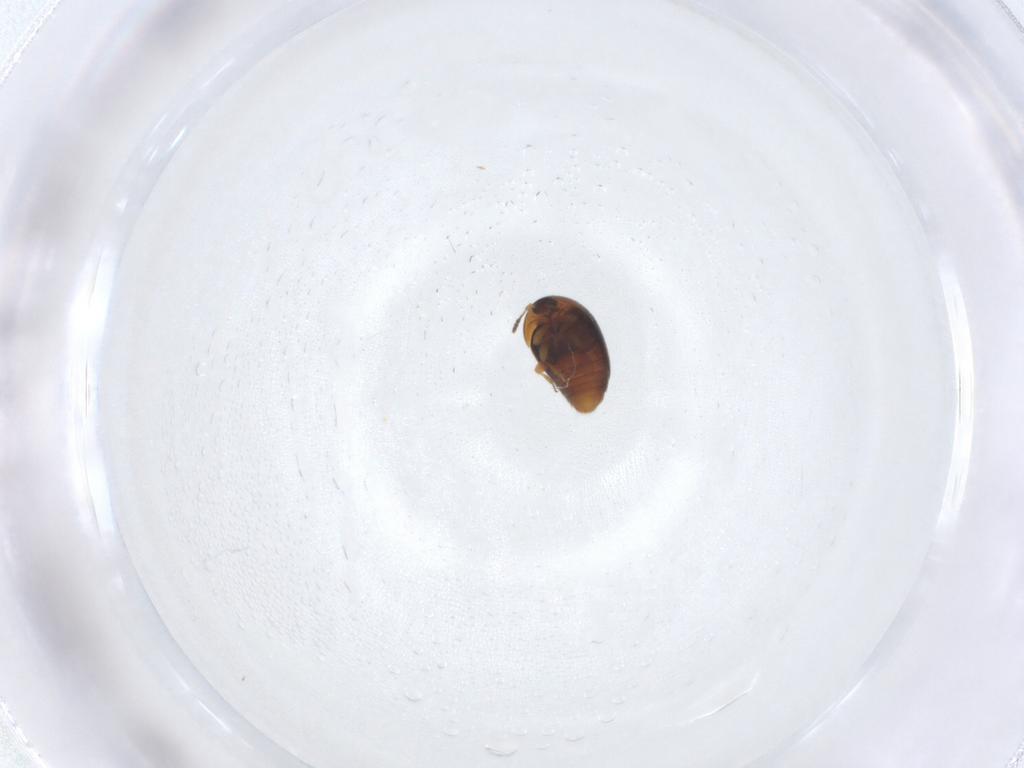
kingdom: Animalia
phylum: Arthropoda
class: Insecta
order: Coleoptera
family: Corylophidae
